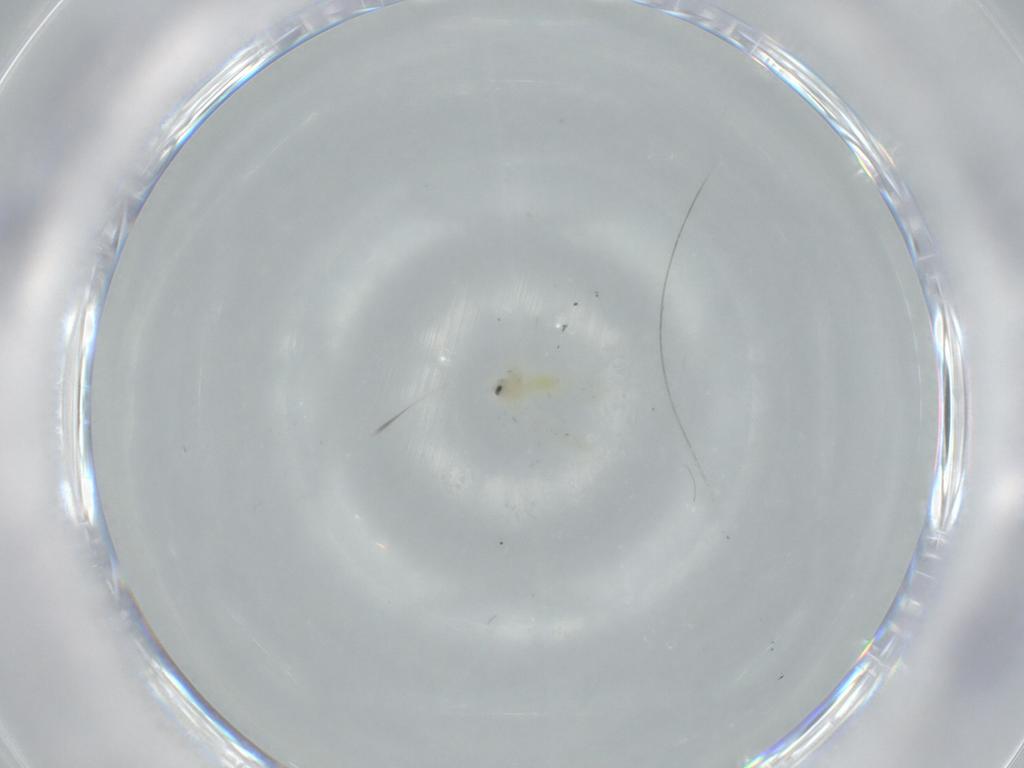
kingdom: Animalia
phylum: Arthropoda
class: Insecta
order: Hemiptera
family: Aleyrodidae
